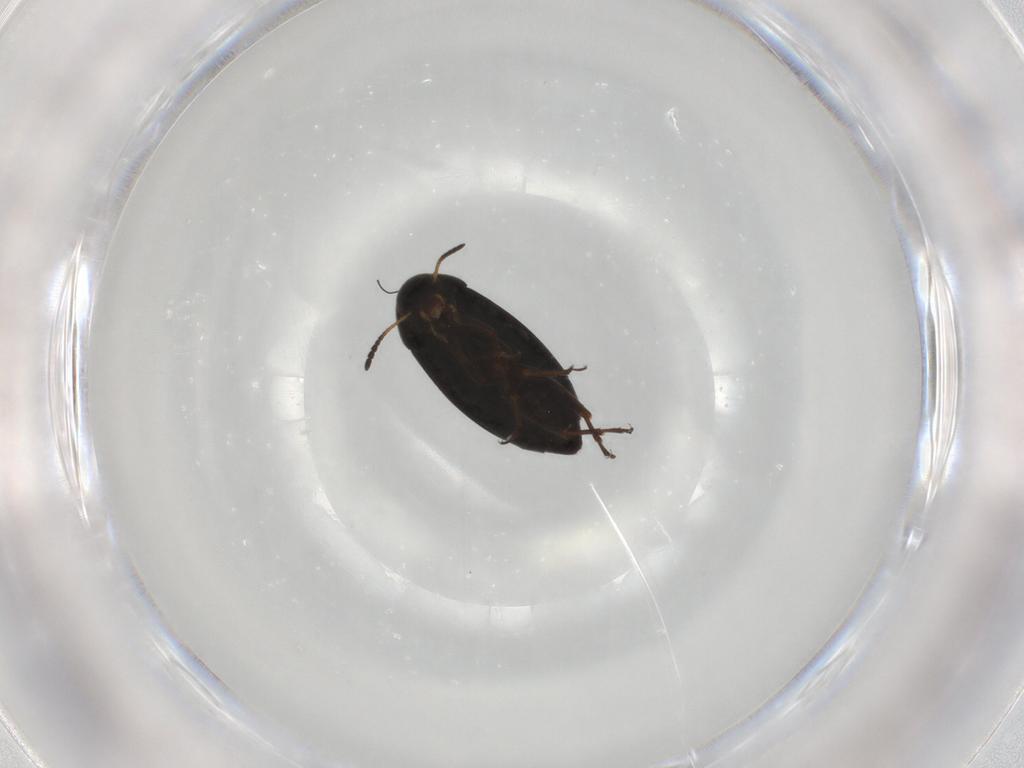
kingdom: Animalia
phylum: Arthropoda
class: Insecta
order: Coleoptera
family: Scraptiidae
